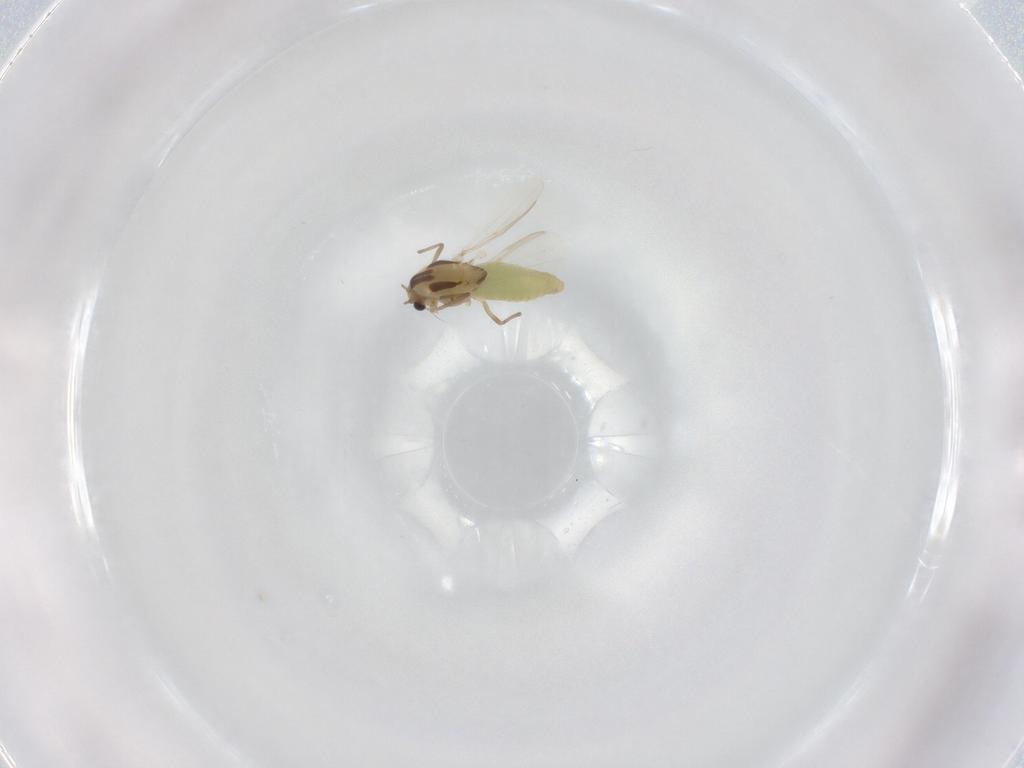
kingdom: Animalia
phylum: Arthropoda
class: Insecta
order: Diptera
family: Chironomidae
